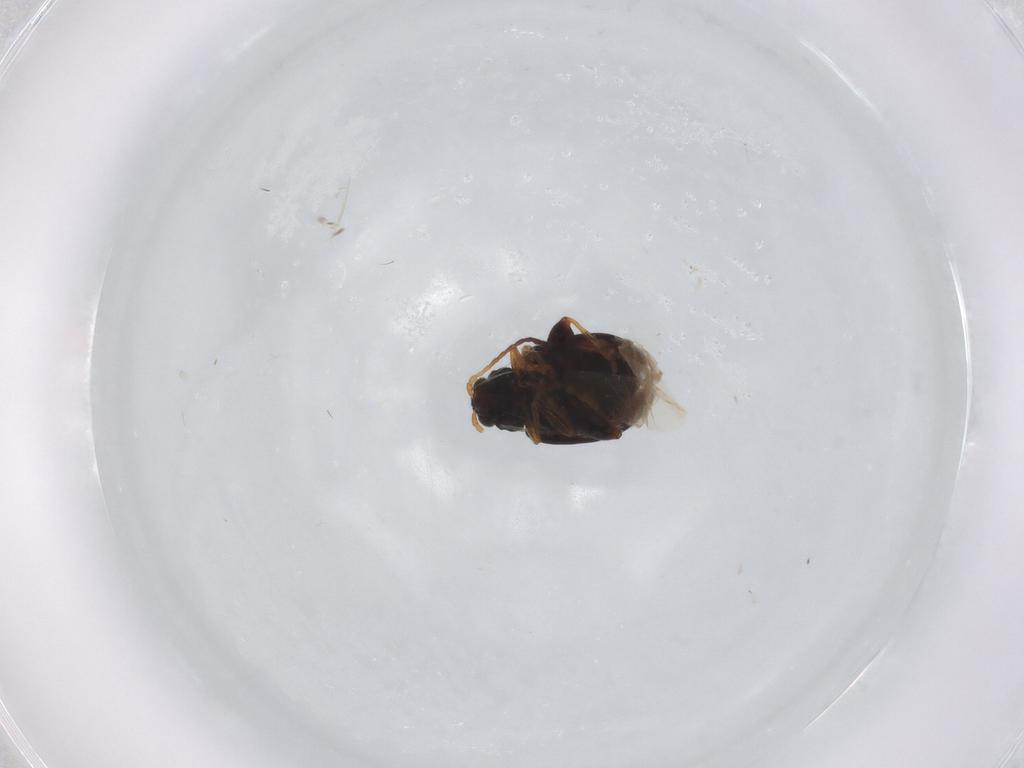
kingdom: Animalia
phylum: Arthropoda
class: Insecta
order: Coleoptera
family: Chrysomelidae
